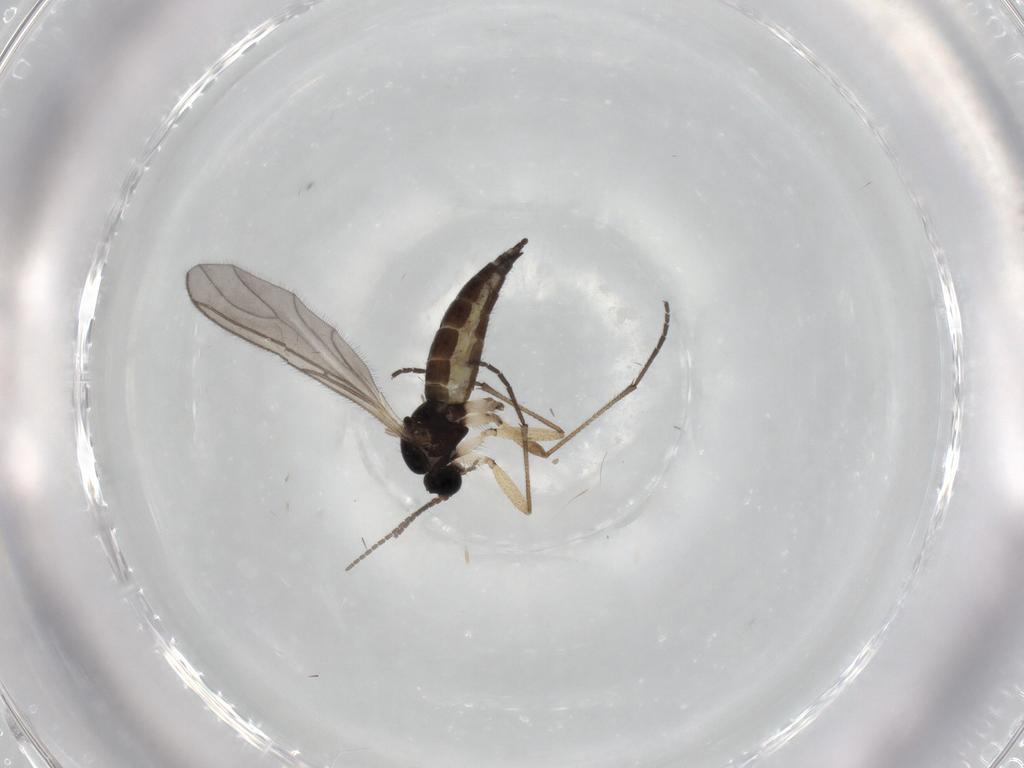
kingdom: Animalia
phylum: Arthropoda
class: Insecta
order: Diptera
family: Sciaridae
